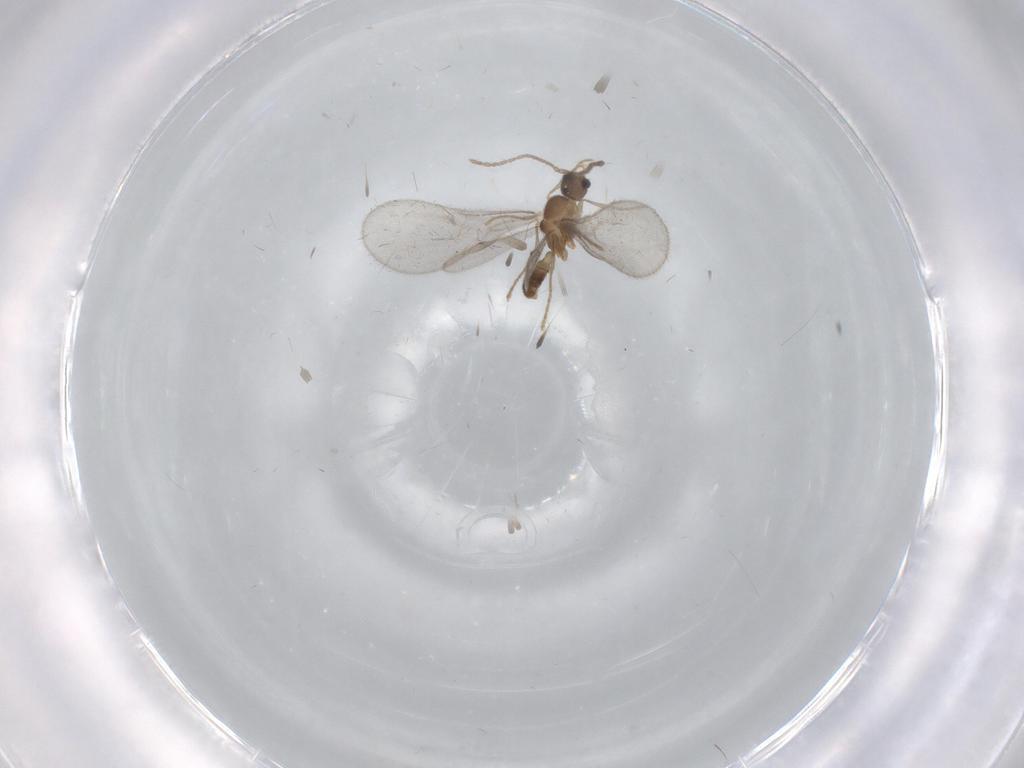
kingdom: Animalia
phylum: Arthropoda
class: Insecta
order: Hymenoptera
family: Formicidae
